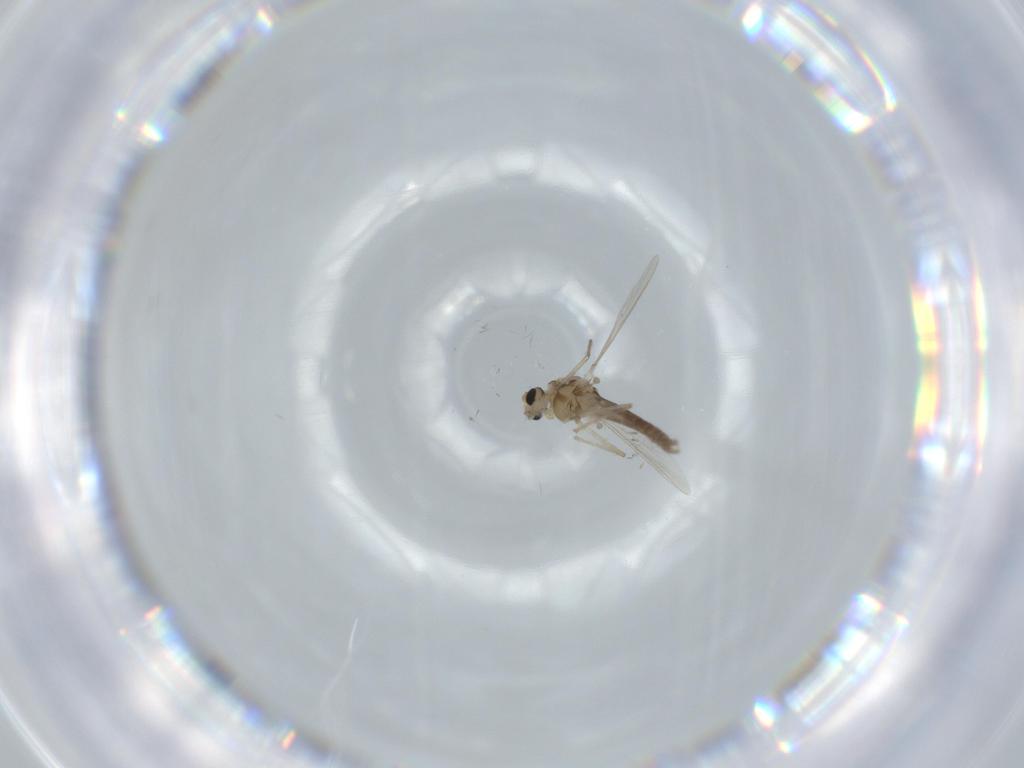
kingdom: Animalia
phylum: Arthropoda
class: Insecta
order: Diptera
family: Chironomidae
